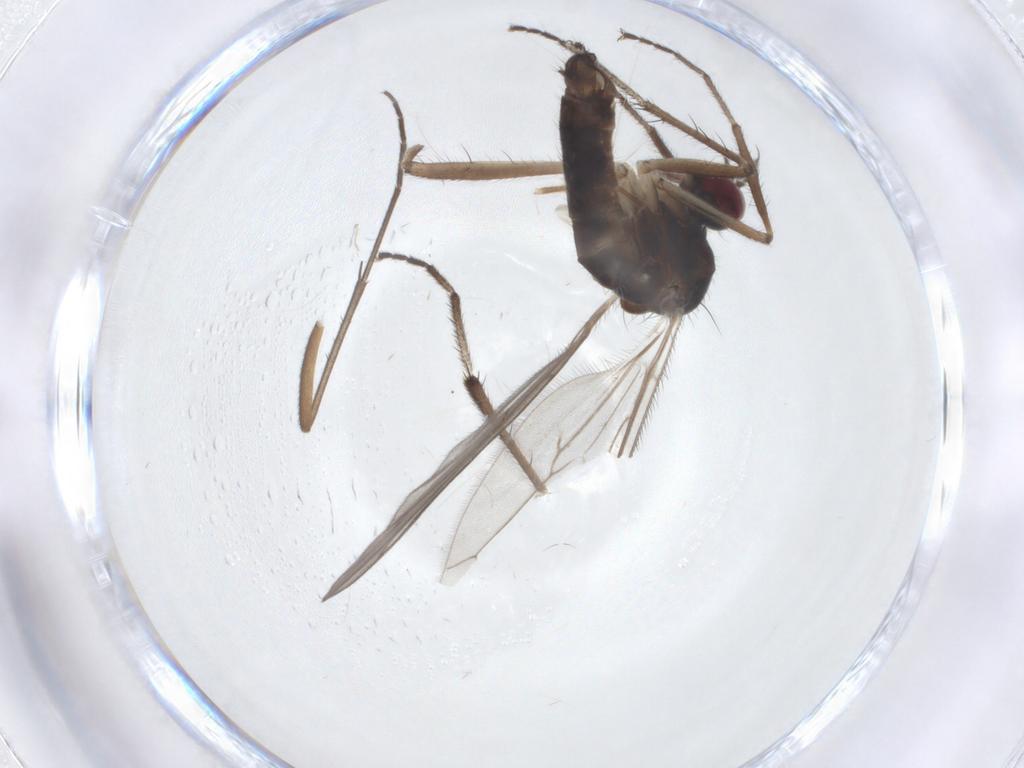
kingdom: Animalia
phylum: Arthropoda
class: Insecta
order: Diptera
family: Hybotidae
